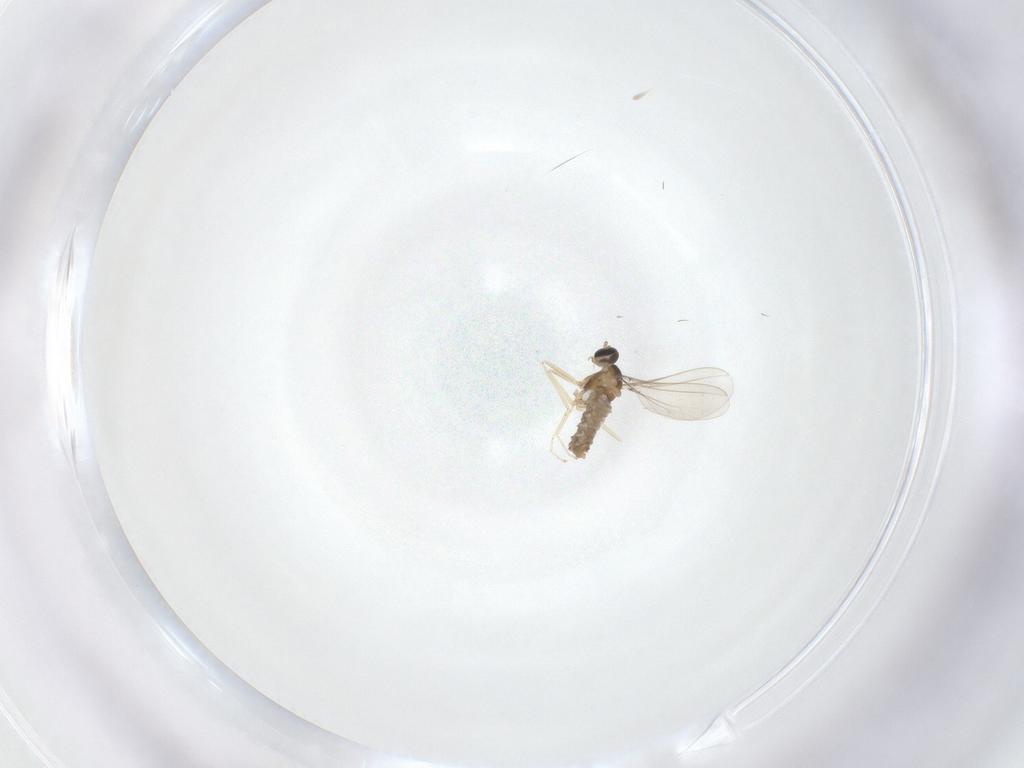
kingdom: Animalia
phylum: Arthropoda
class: Insecta
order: Diptera
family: Cecidomyiidae
